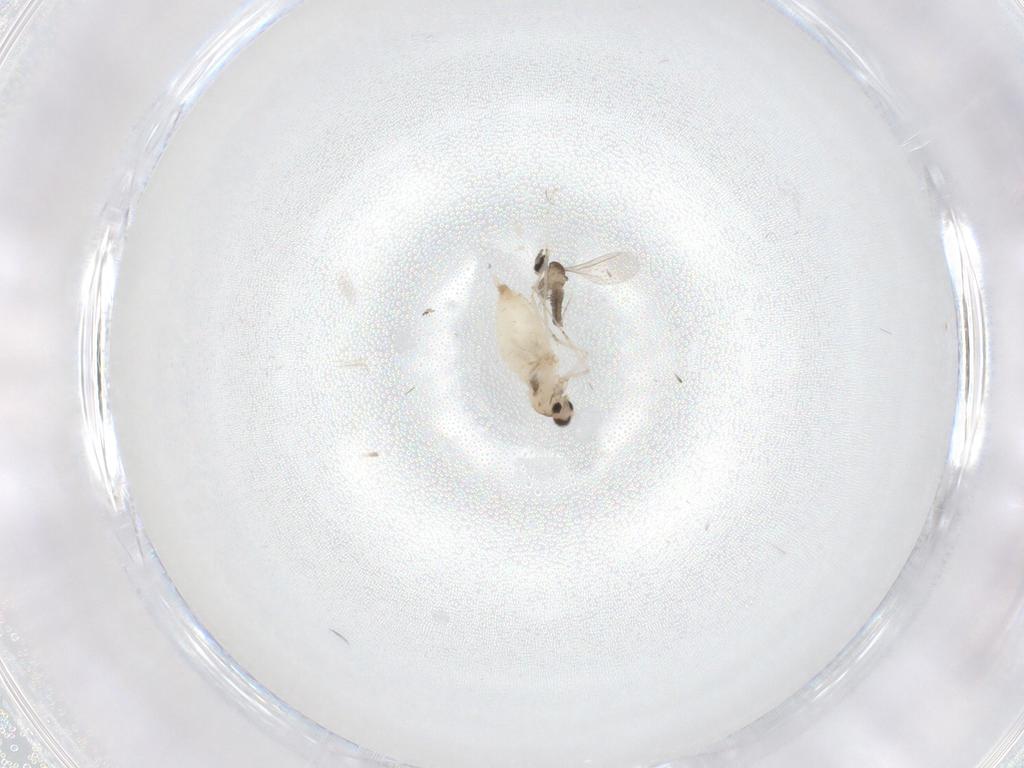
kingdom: Animalia
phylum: Arthropoda
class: Insecta
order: Diptera
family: Cecidomyiidae
